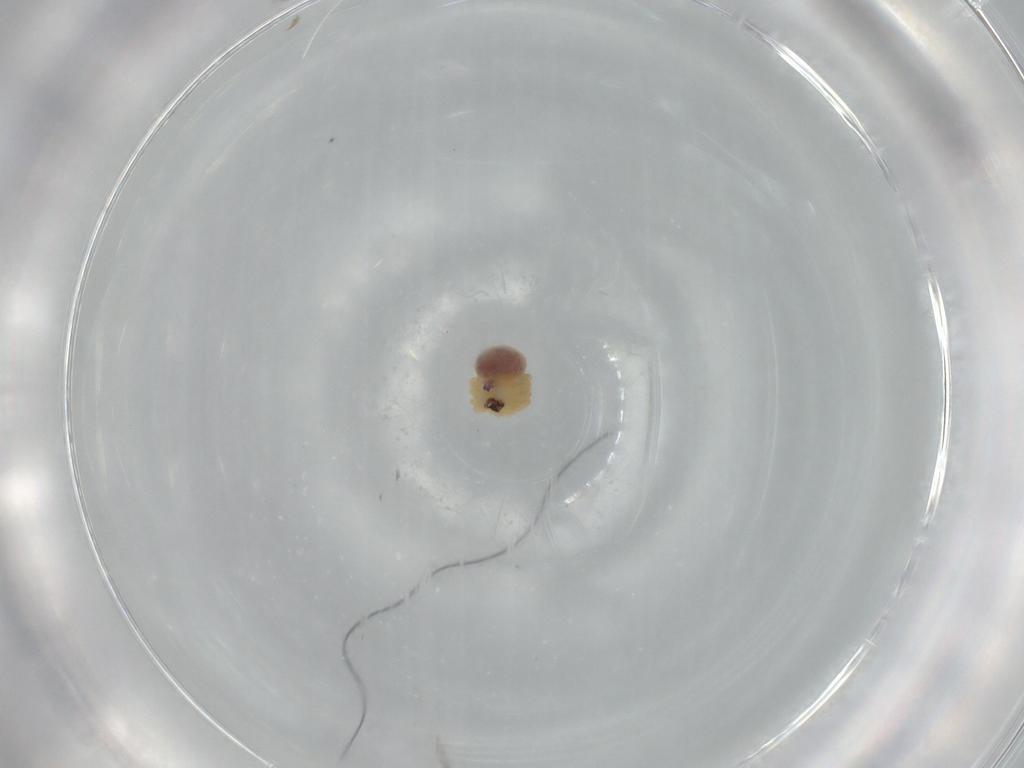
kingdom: Animalia
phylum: Arthropoda
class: Arachnida
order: Araneae
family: Pholcidae
